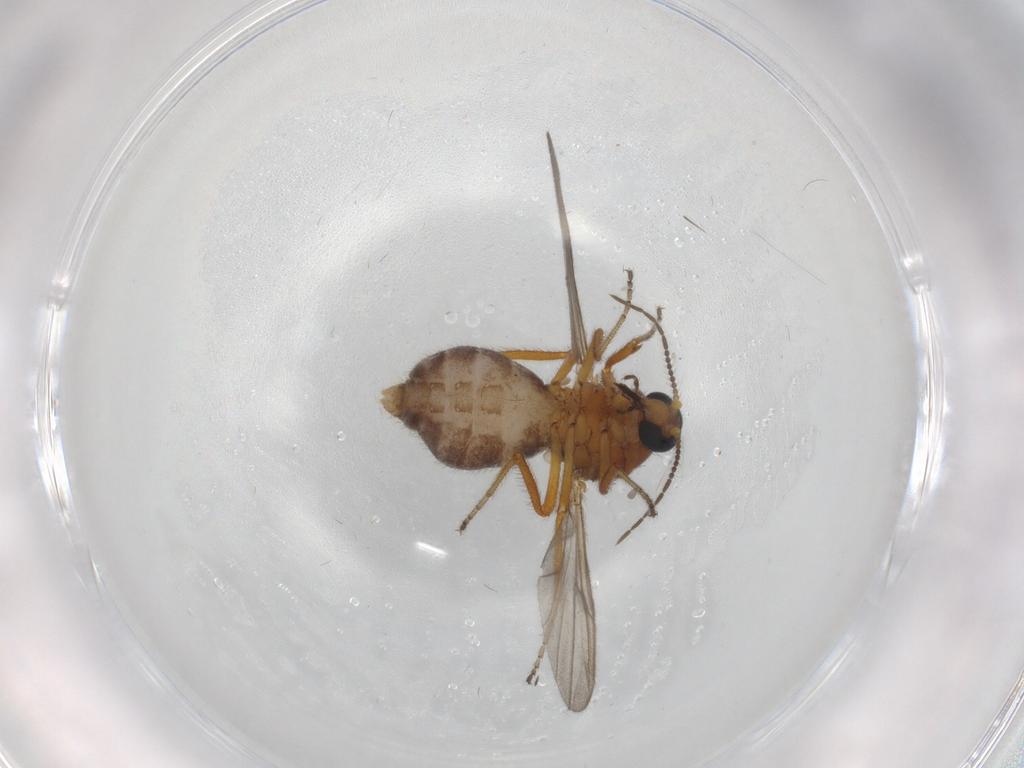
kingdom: Animalia
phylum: Arthropoda
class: Insecta
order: Diptera
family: Ceratopogonidae
